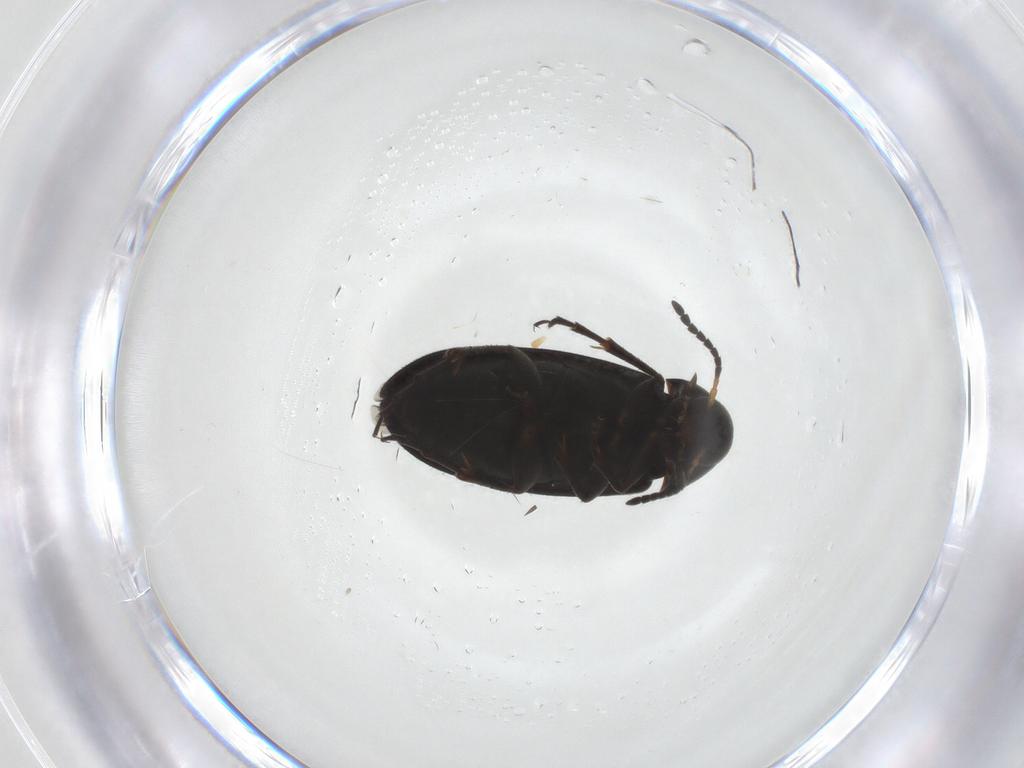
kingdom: Animalia
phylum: Arthropoda
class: Insecta
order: Coleoptera
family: Scraptiidae
